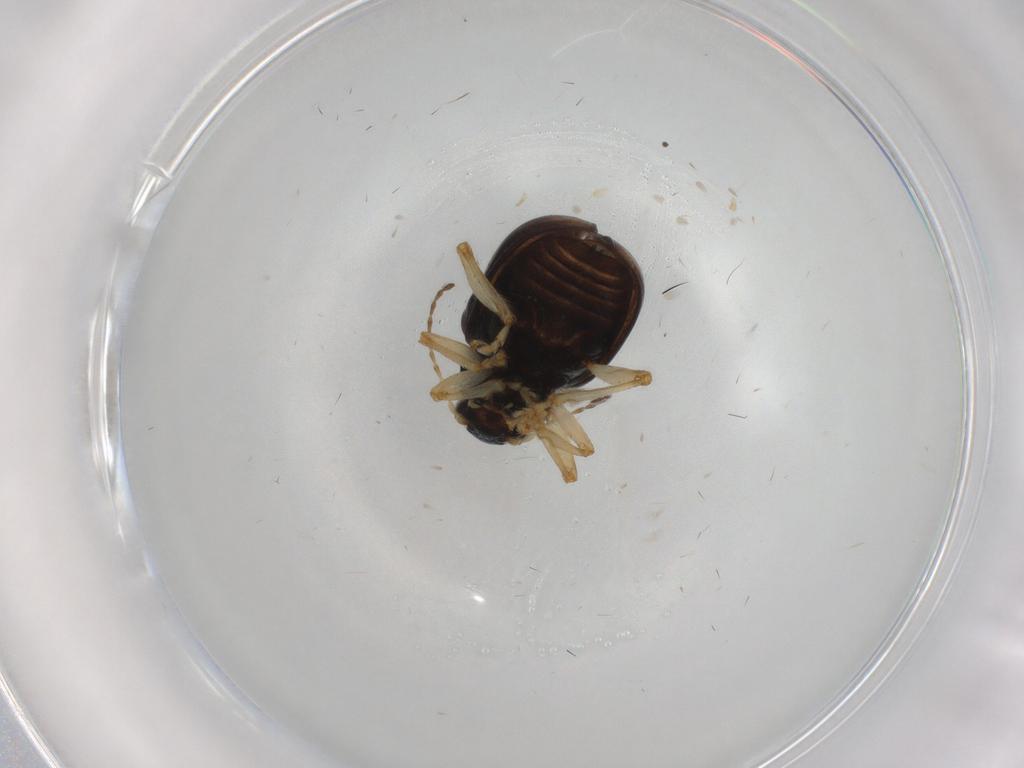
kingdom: Animalia
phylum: Arthropoda
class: Insecta
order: Coleoptera
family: Chrysomelidae
